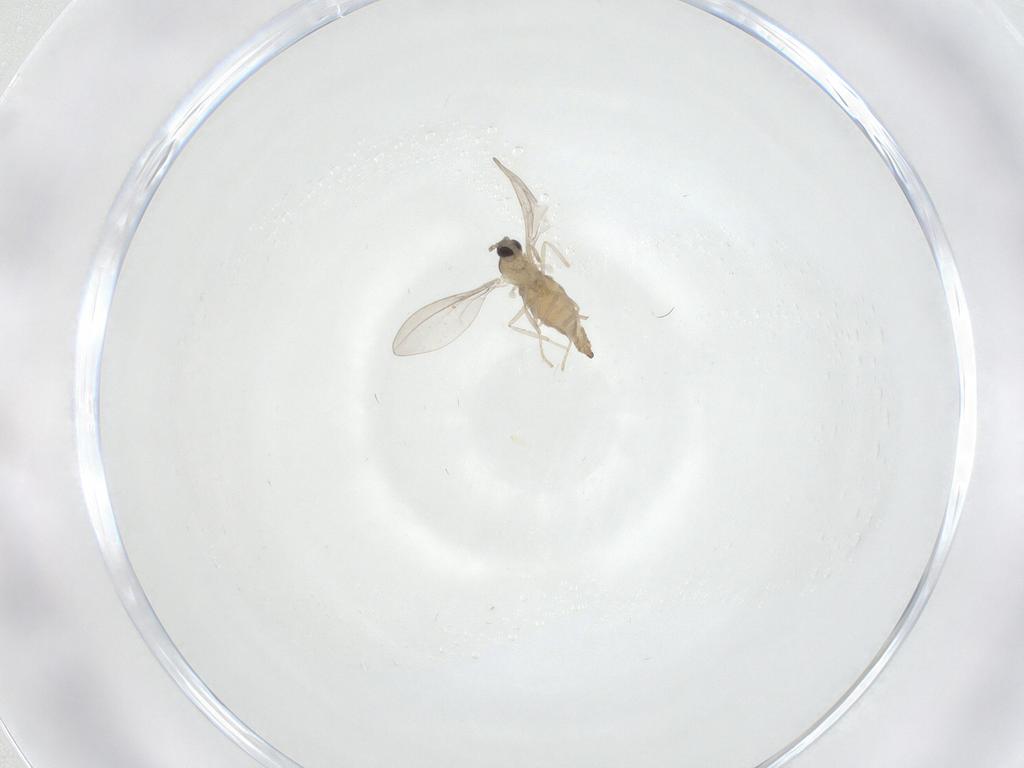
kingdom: Animalia
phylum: Arthropoda
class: Insecta
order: Diptera
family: Cecidomyiidae
